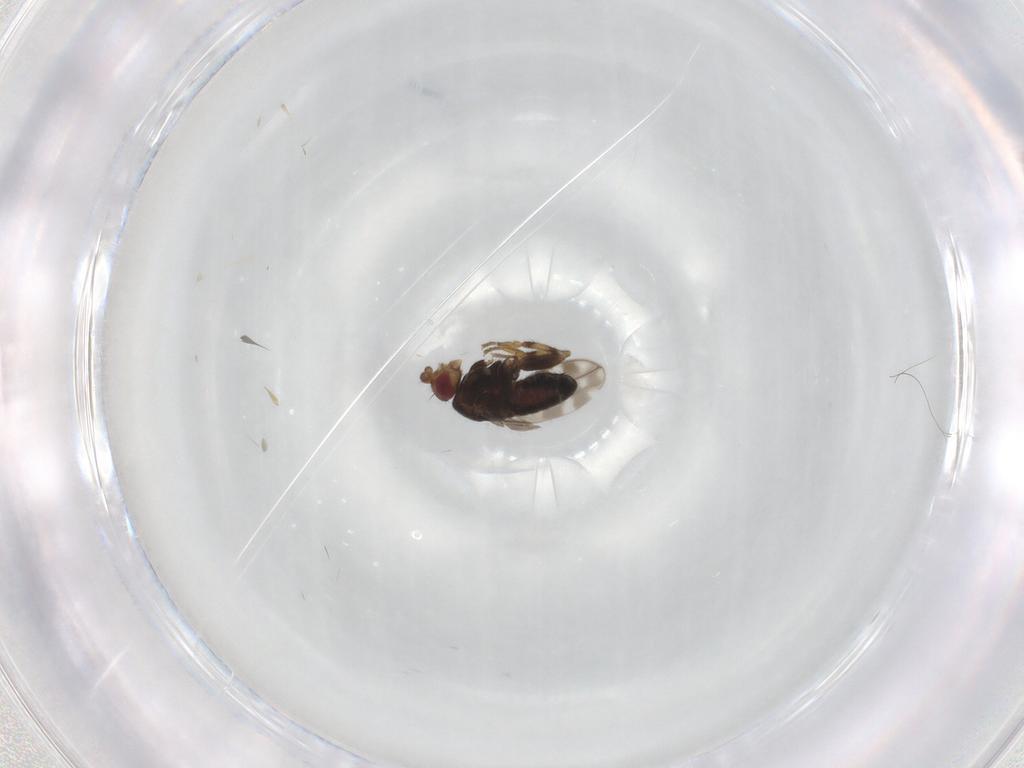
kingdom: Animalia
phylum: Arthropoda
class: Insecta
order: Diptera
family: Sphaeroceridae
